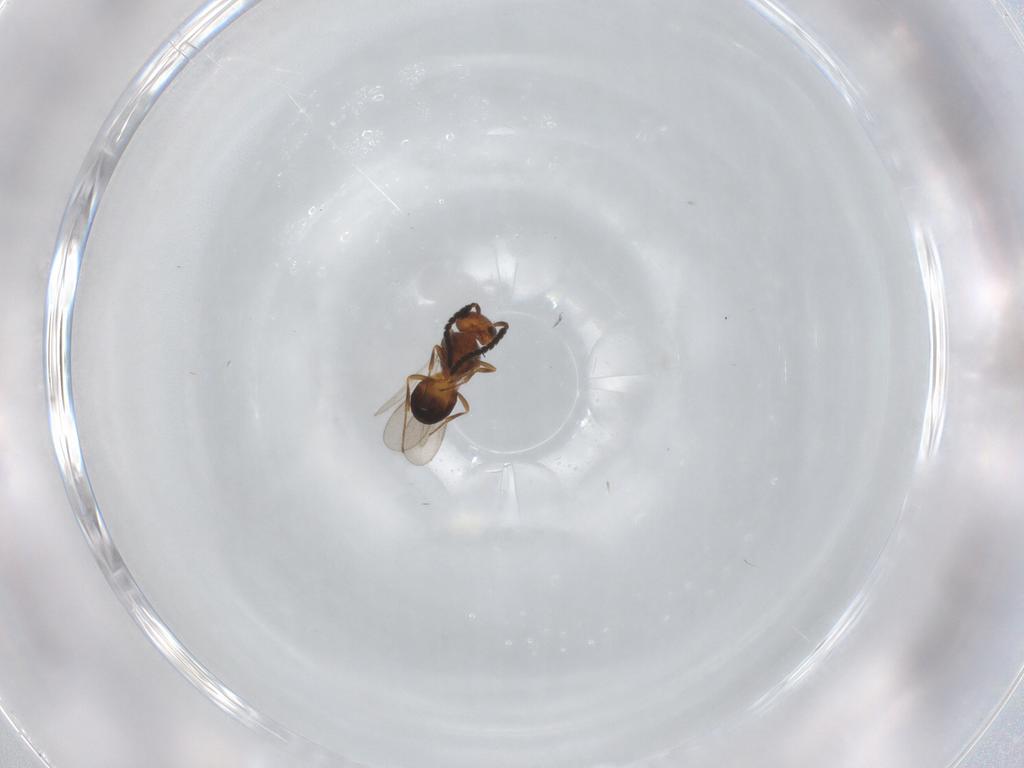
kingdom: Animalia
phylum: Arthropoda
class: Insecta
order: Hymenoptera
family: Scelionidae
